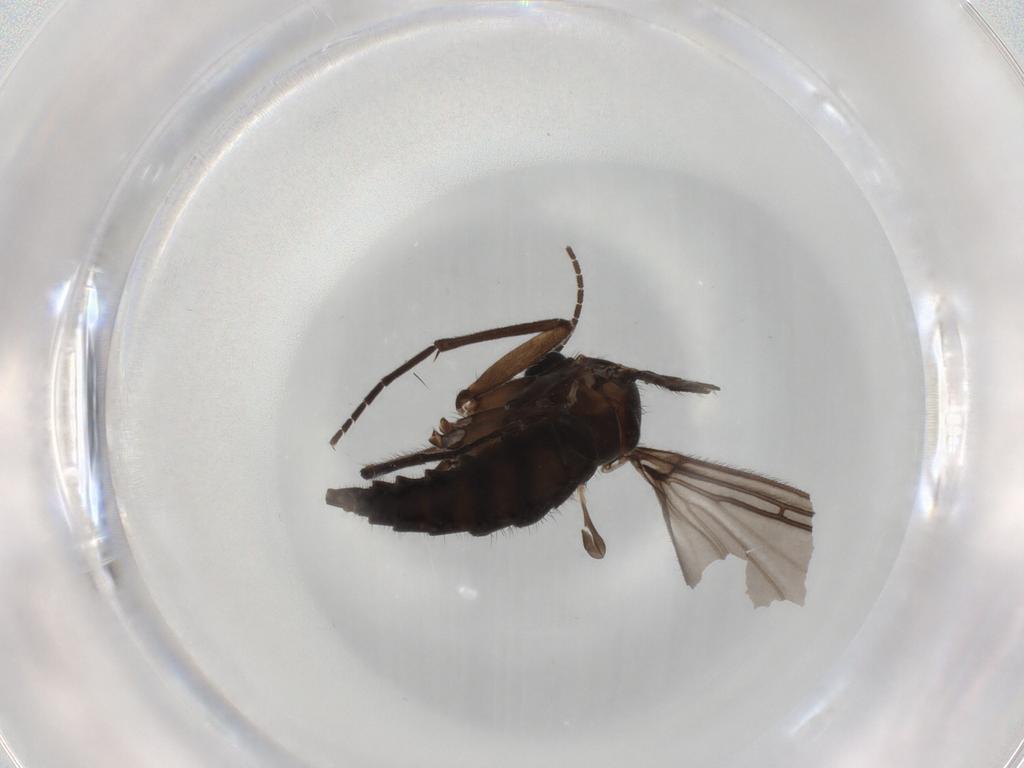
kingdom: Animalia
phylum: Arthropoda
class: Insecta
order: Diptera
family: Sciaridae
